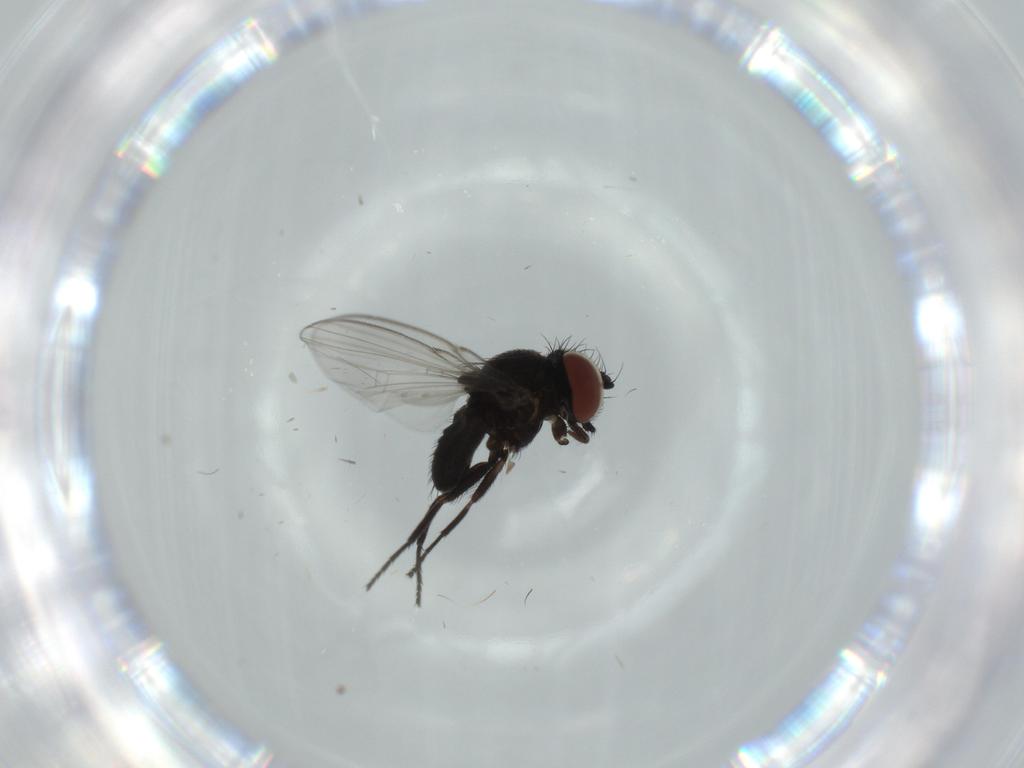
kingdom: Animalia
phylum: Arthropoda
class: Insecta
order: Diptera
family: Milichiidae
